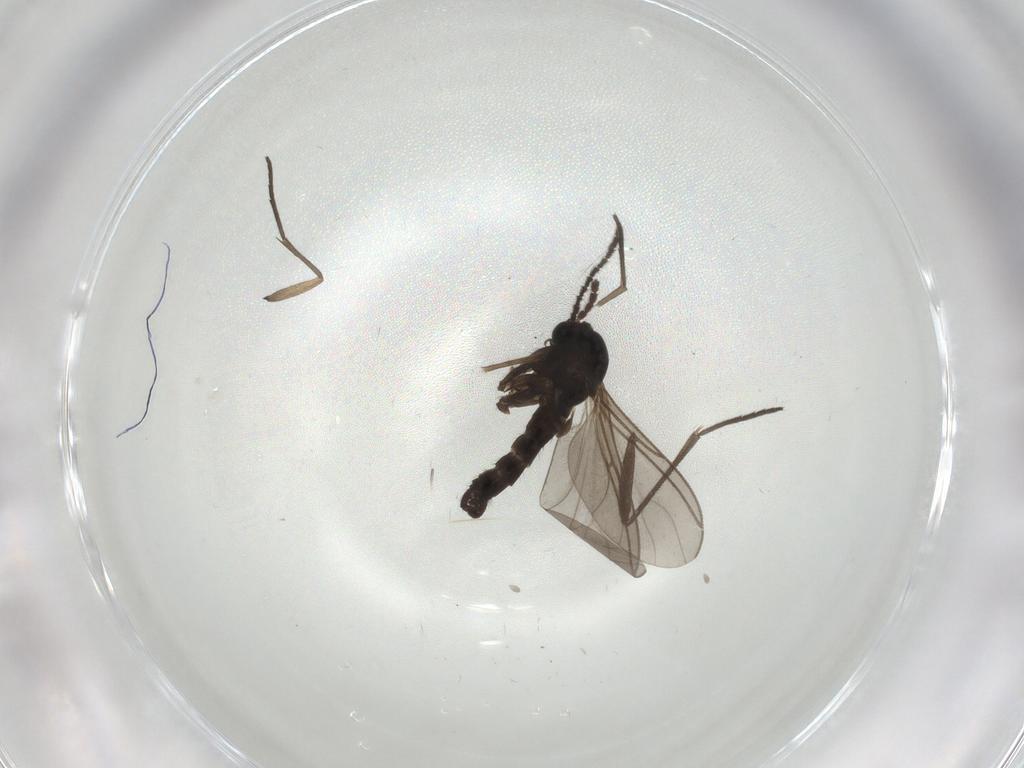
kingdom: Animalia
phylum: Arthropoda
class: Insecta
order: Diptera
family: Sciaridae
